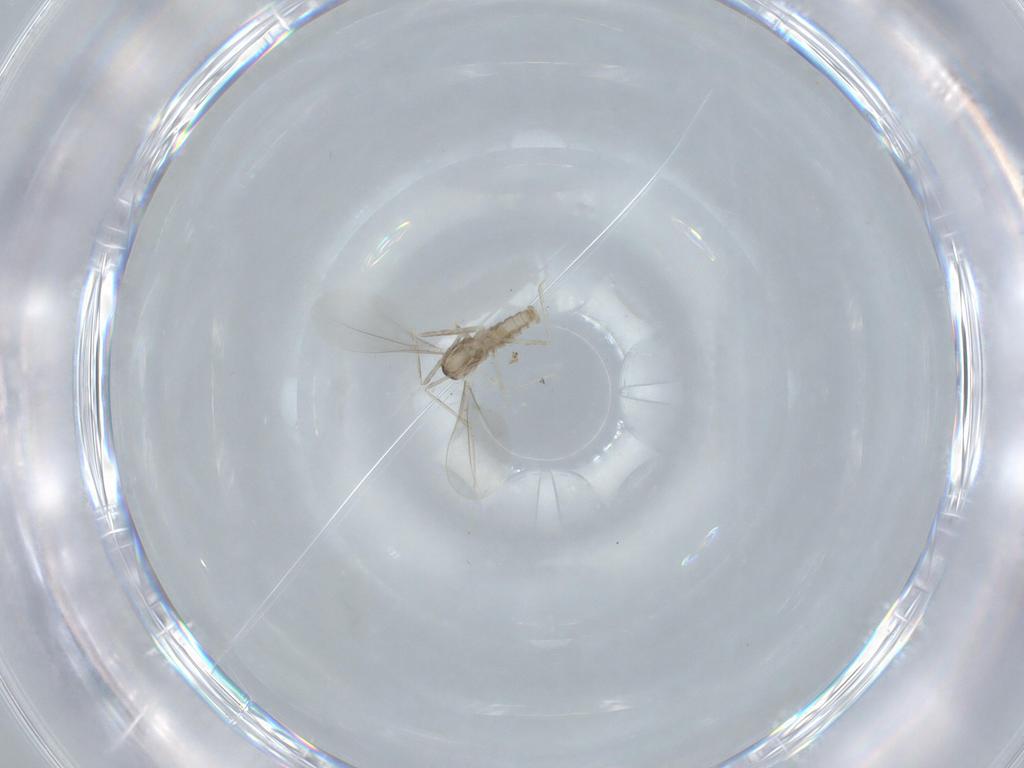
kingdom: Animalia
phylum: Arthropoda
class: Insecta
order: Diptera
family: Cecidomyiidae
